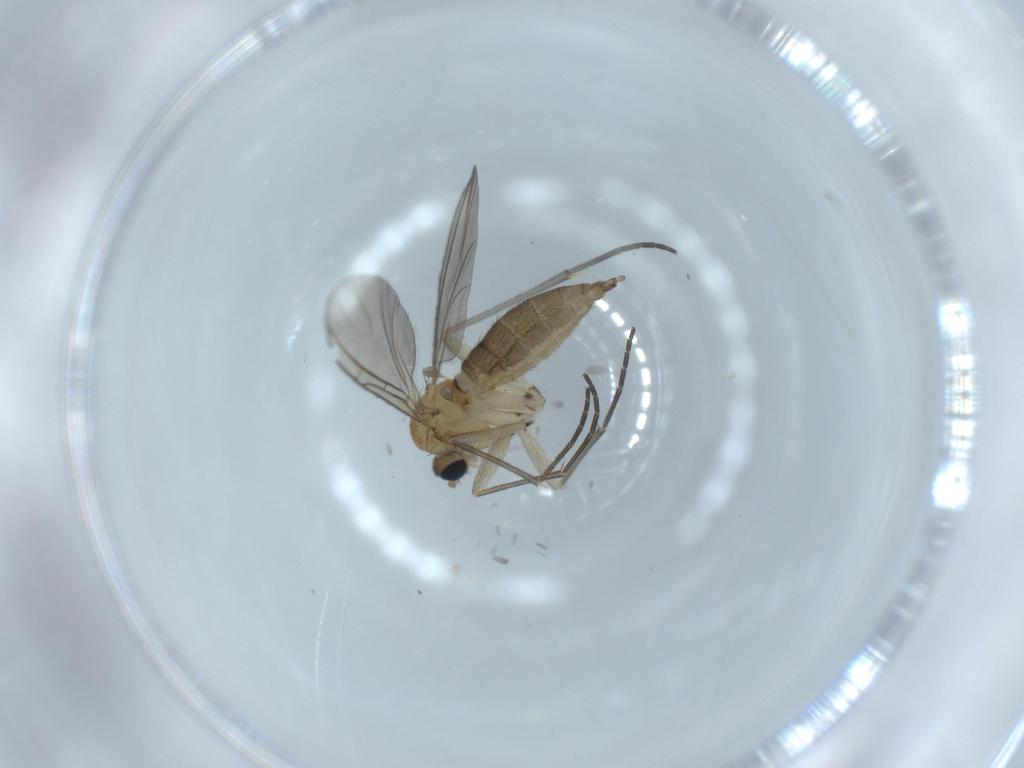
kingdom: Animalia
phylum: Arthropoda
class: Insecta
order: Diptera
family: Sciaridae
